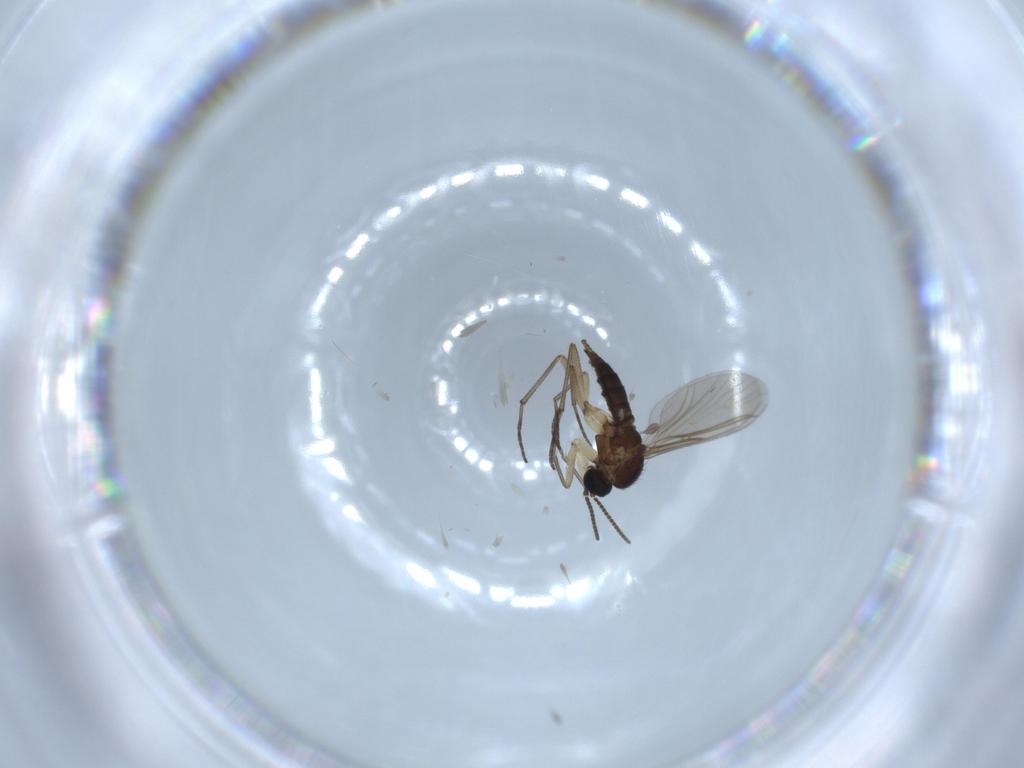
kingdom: Animalia
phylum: Arthropoda
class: Insecta
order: Diptera
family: Sciaridae
